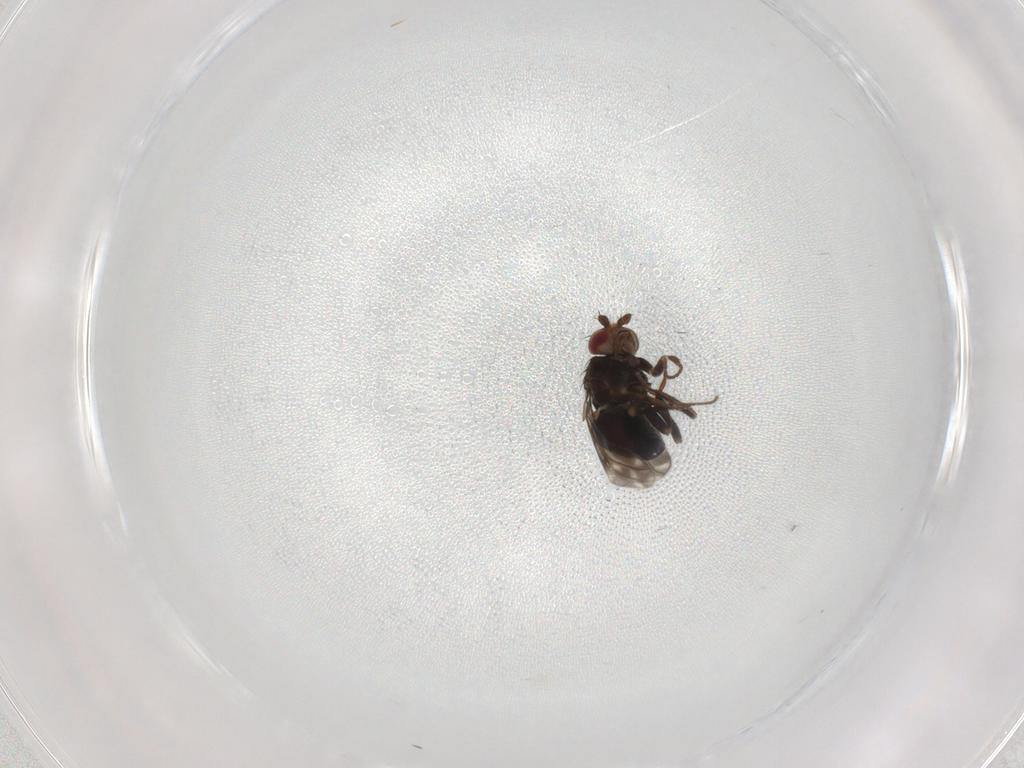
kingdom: Animalia
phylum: Arthropoda
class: Insecta
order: Diptera
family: Sphaeroceridae
